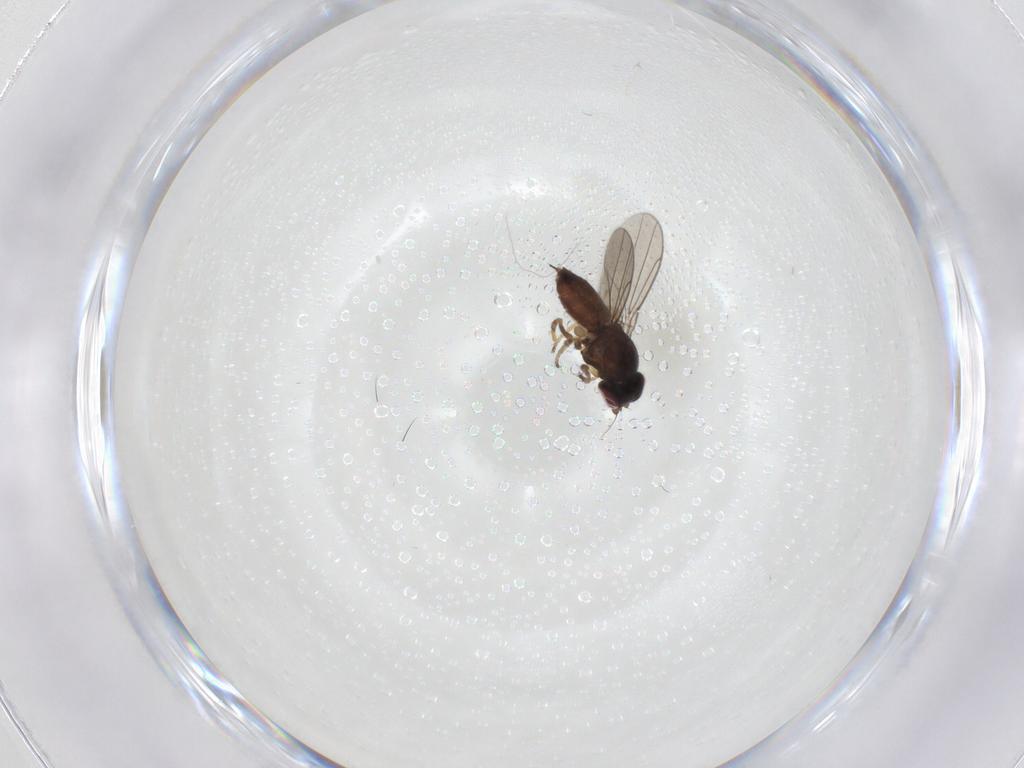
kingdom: Animalia
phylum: Arthropoda
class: Insecta
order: Diptera
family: Chloropidae
